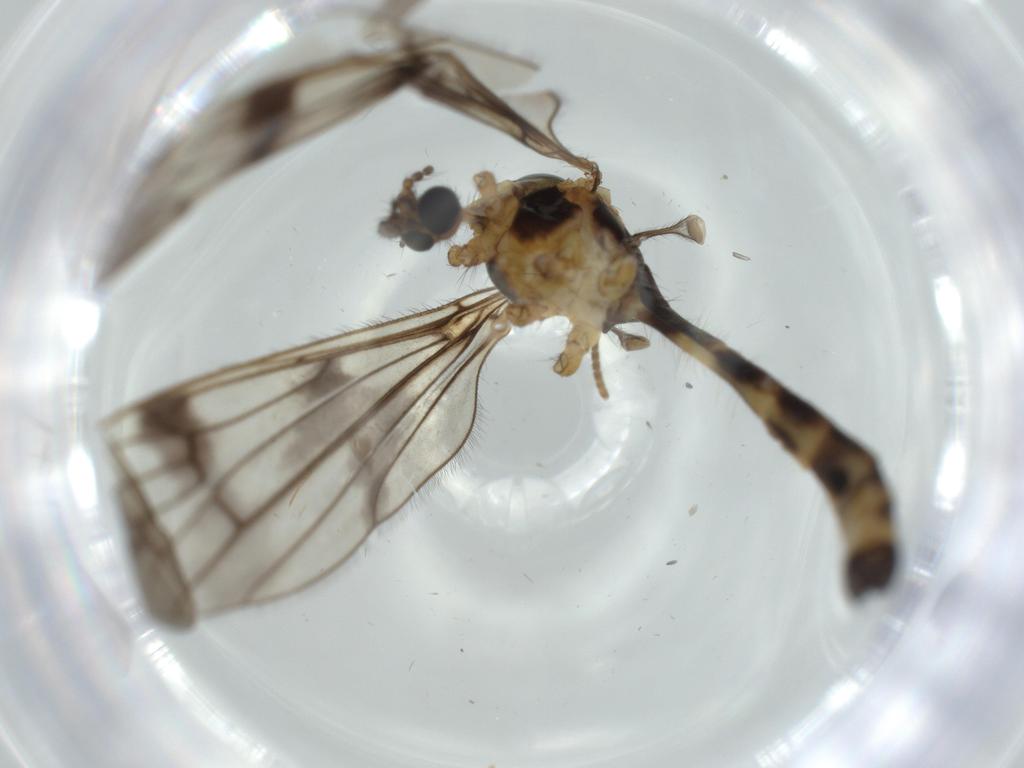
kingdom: Animalia
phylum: Arthropoda
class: Insecta
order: Diptera
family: Limoniidae
